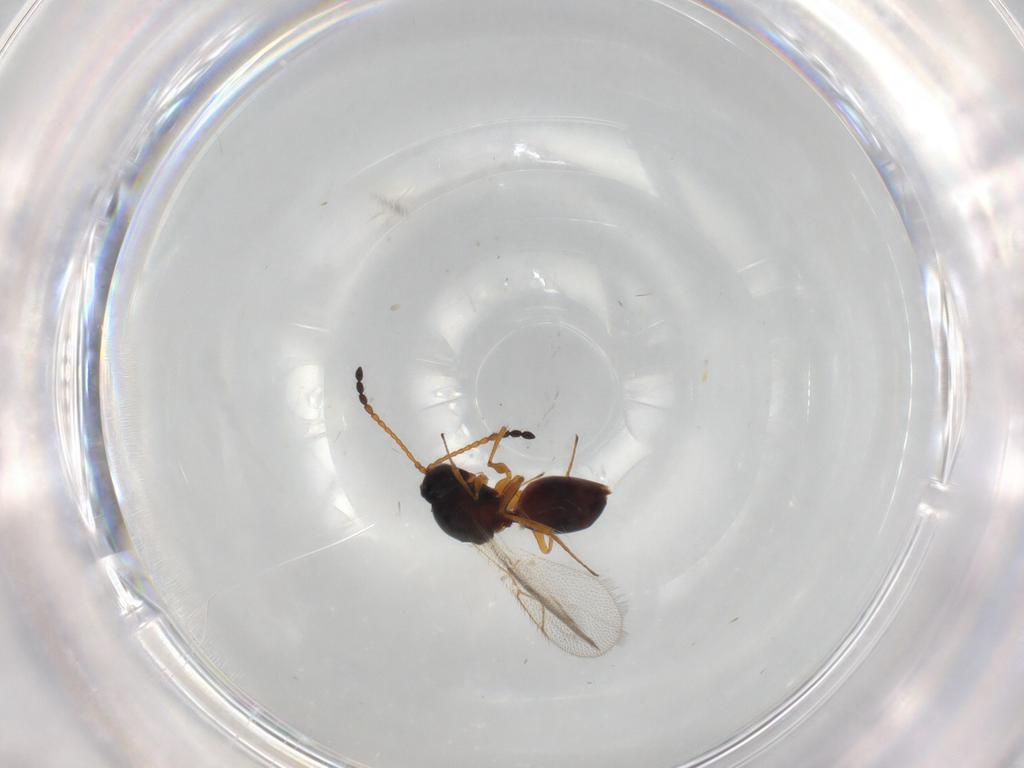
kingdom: Animalia
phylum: Arthropoda
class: Insecta
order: Hymenoptera
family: Figitidae
